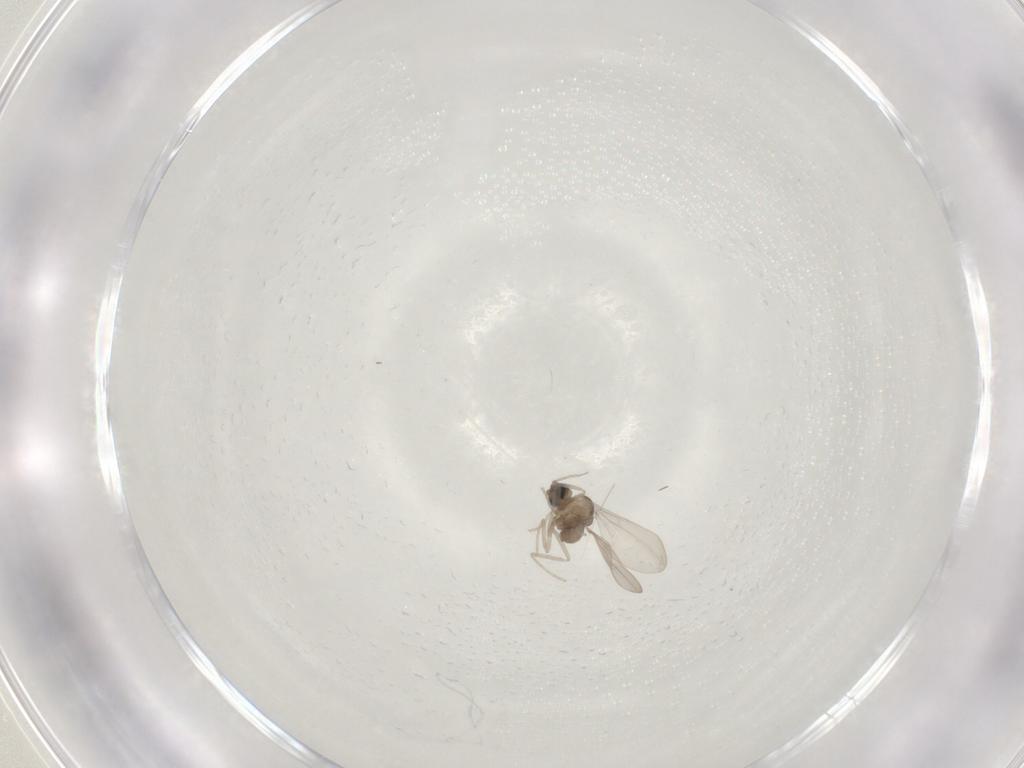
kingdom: Animalia
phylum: Arthropoda
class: Insecta
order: Diptera
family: Cecidomyiidae
